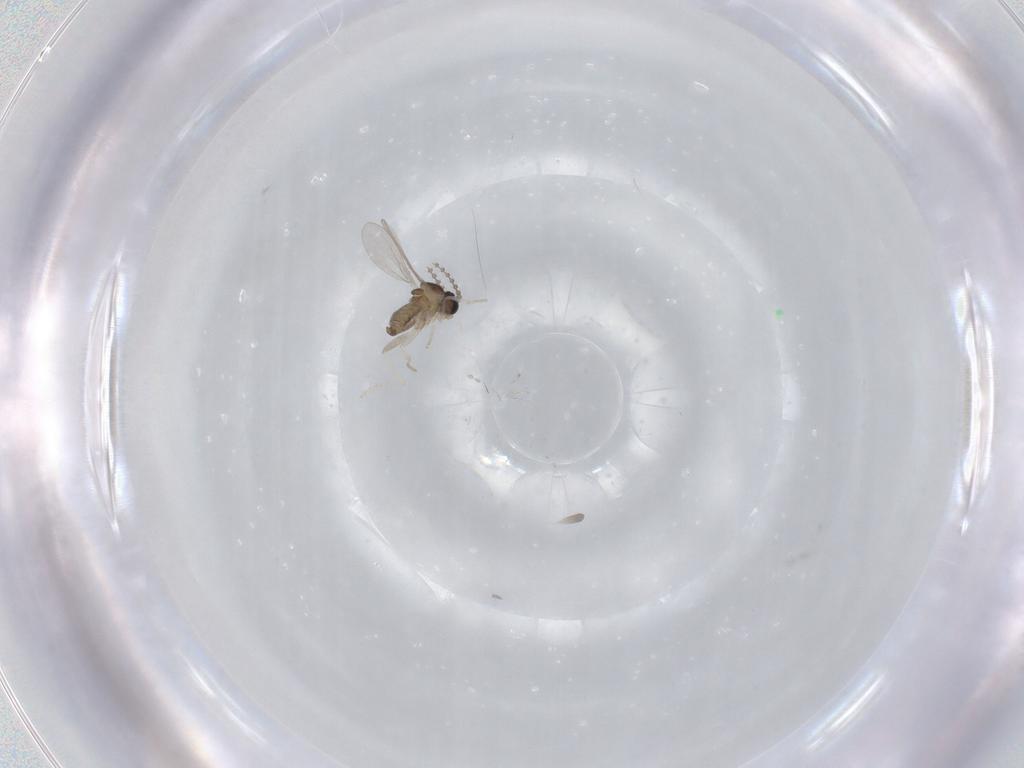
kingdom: Animalia
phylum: Arthropoda
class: Insecta
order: Diptera
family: Cecidomyiidae
